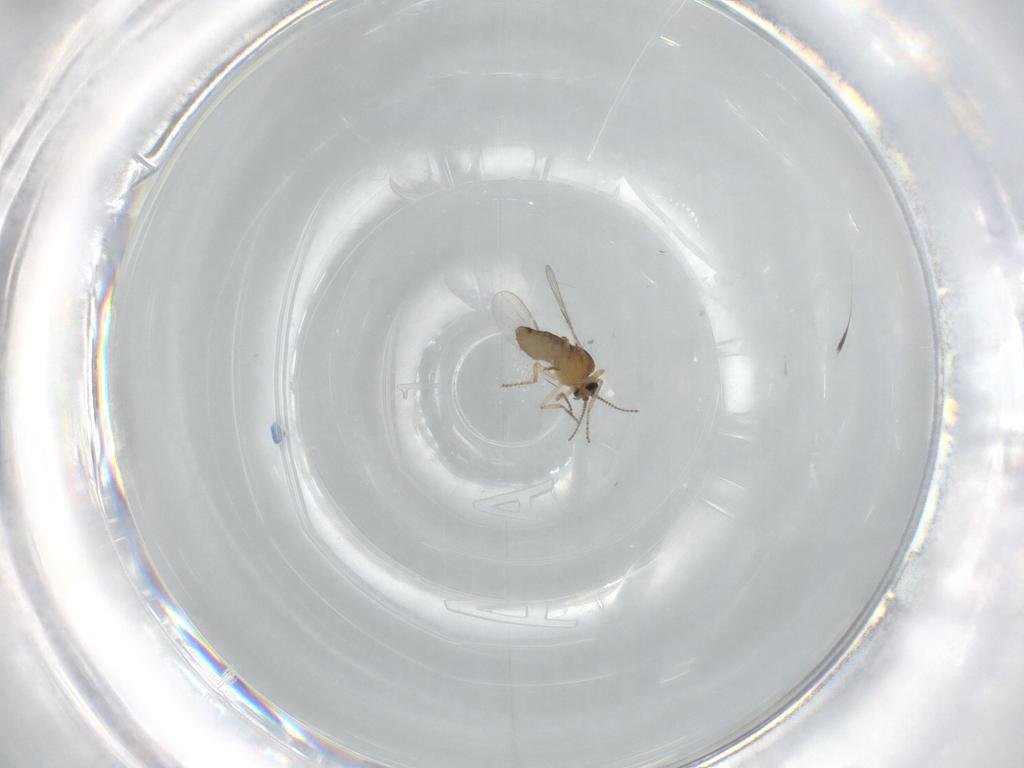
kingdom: Animalia
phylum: Arthropoda
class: Insecta
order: Diptera
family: Ceratopogonidae
